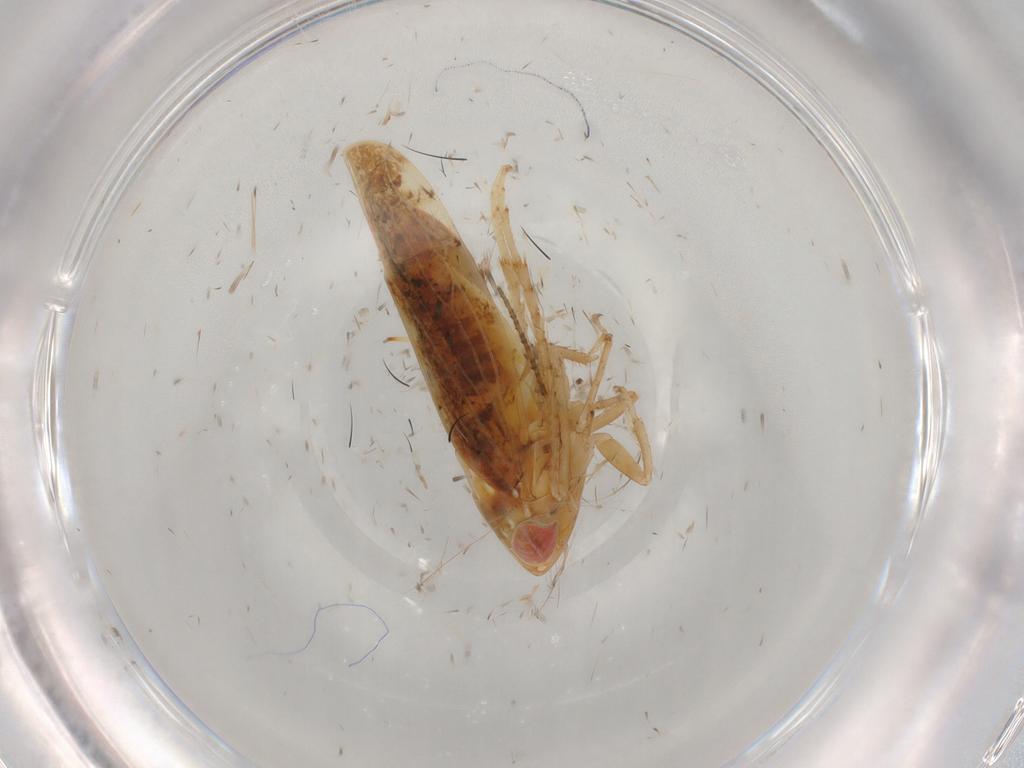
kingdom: Animalia
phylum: Arthropoda
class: Insecta
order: Hemiptera
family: Cicadellidae
